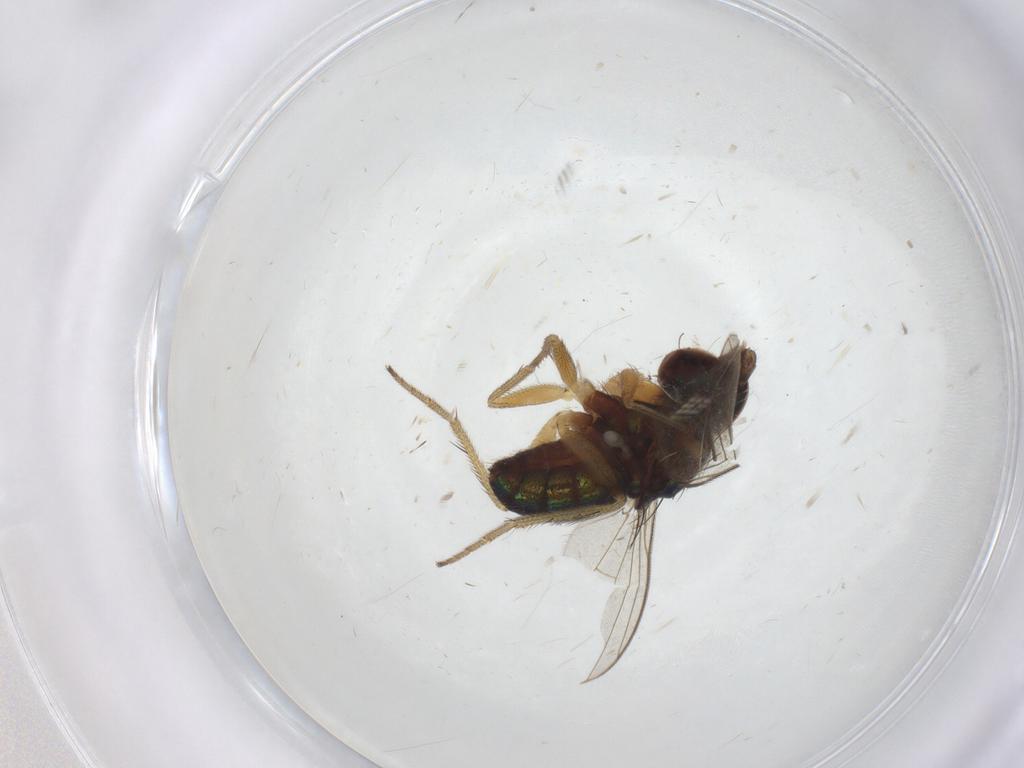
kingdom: Animalia
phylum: Arthropoda
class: Insecta
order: Diptera
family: Dolichopodidae
